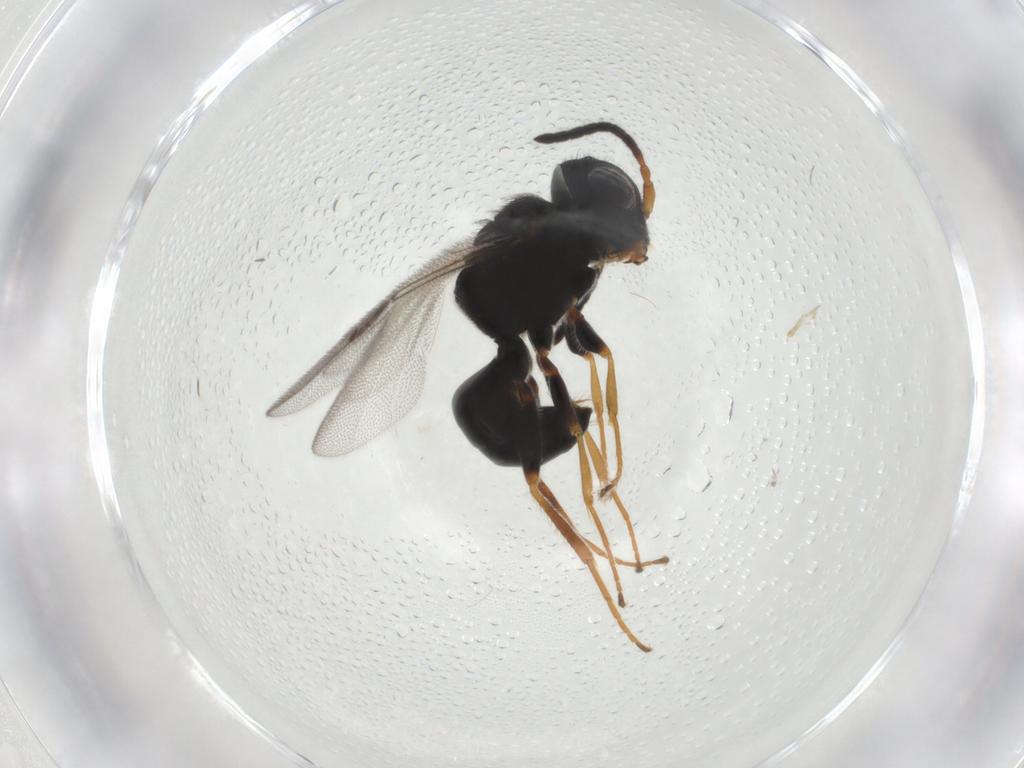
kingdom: Animalia
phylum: Arthropoda
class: Insecta
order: Hymenoptera
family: Dryinidae
